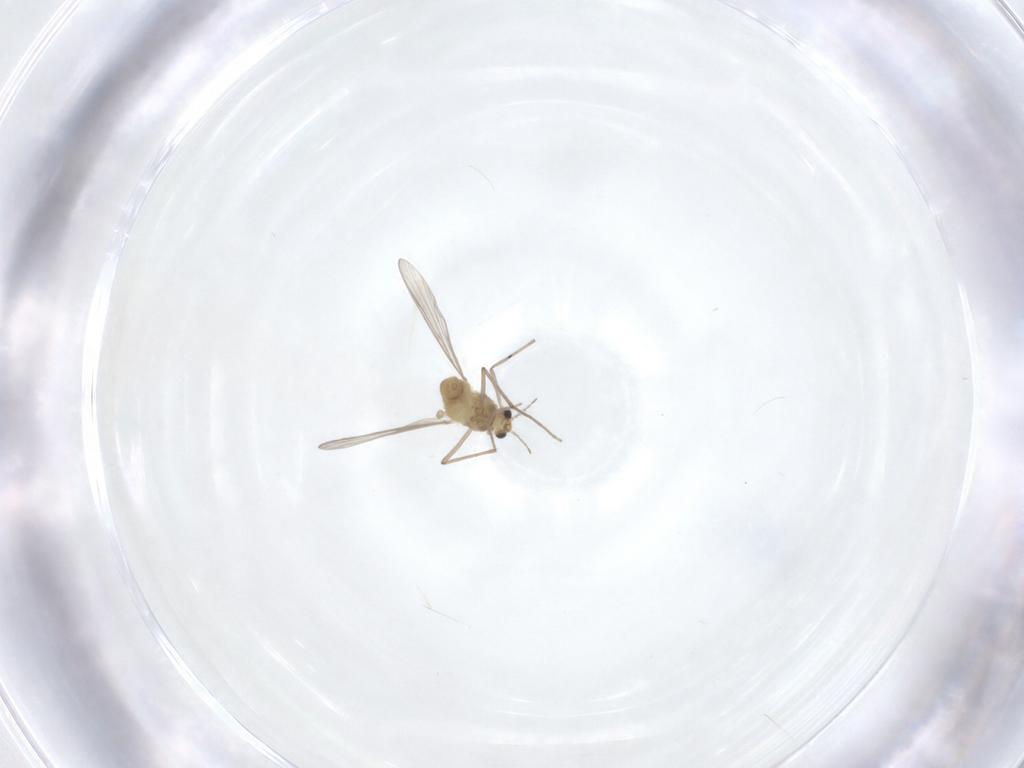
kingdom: Animalia
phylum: Arthropoda
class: Insecta
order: Diptera
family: Chironomidae
